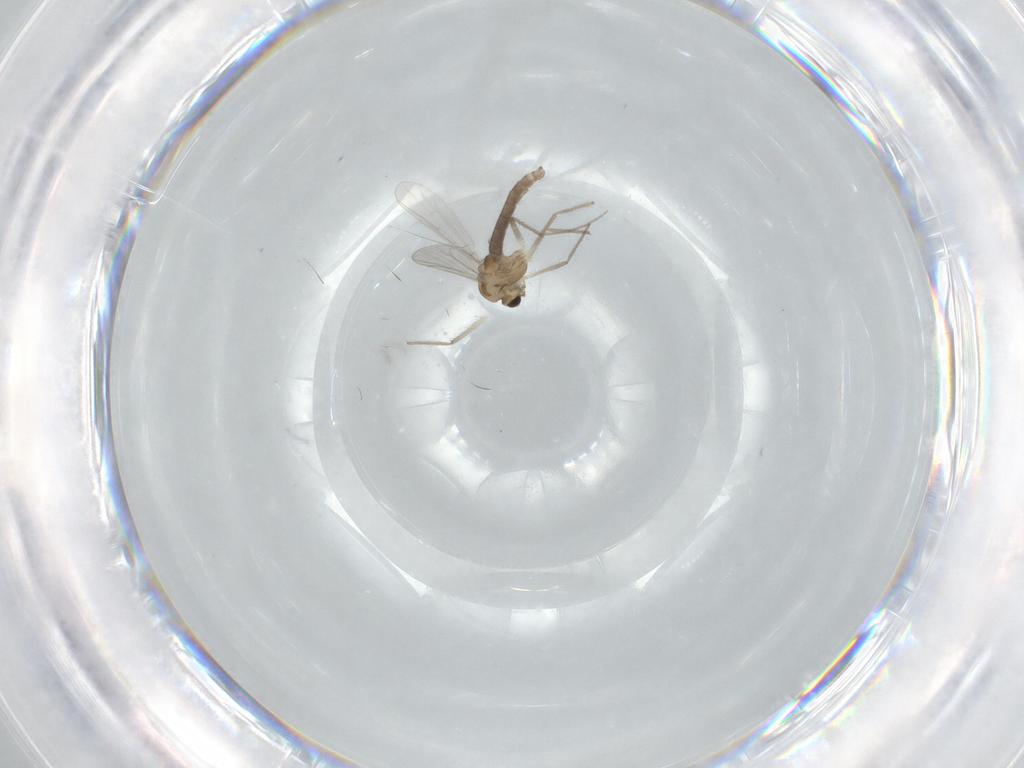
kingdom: Animalia
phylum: Arthropoda
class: Insecta
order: Diptera
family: Chironomidae
